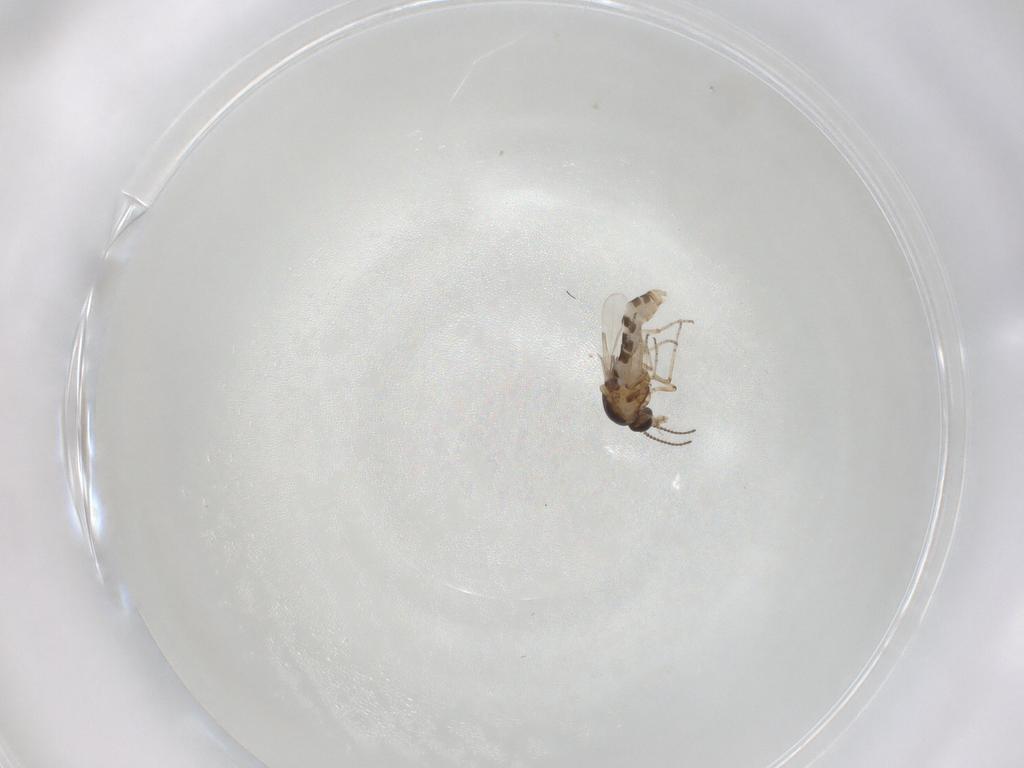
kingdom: Animalia
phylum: Arthropoda
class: Insecta
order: Diptera
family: Ceratopogonidae
